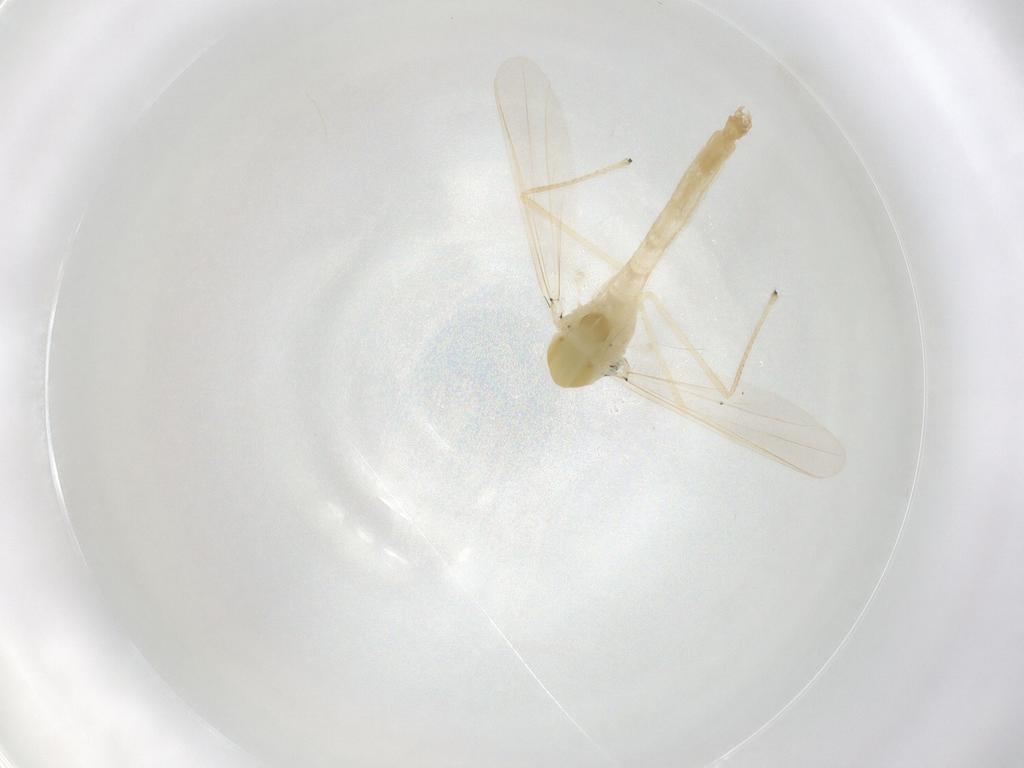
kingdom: Animalia
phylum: Arthropoda
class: Insecta
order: Diptera
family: Chironomidae
